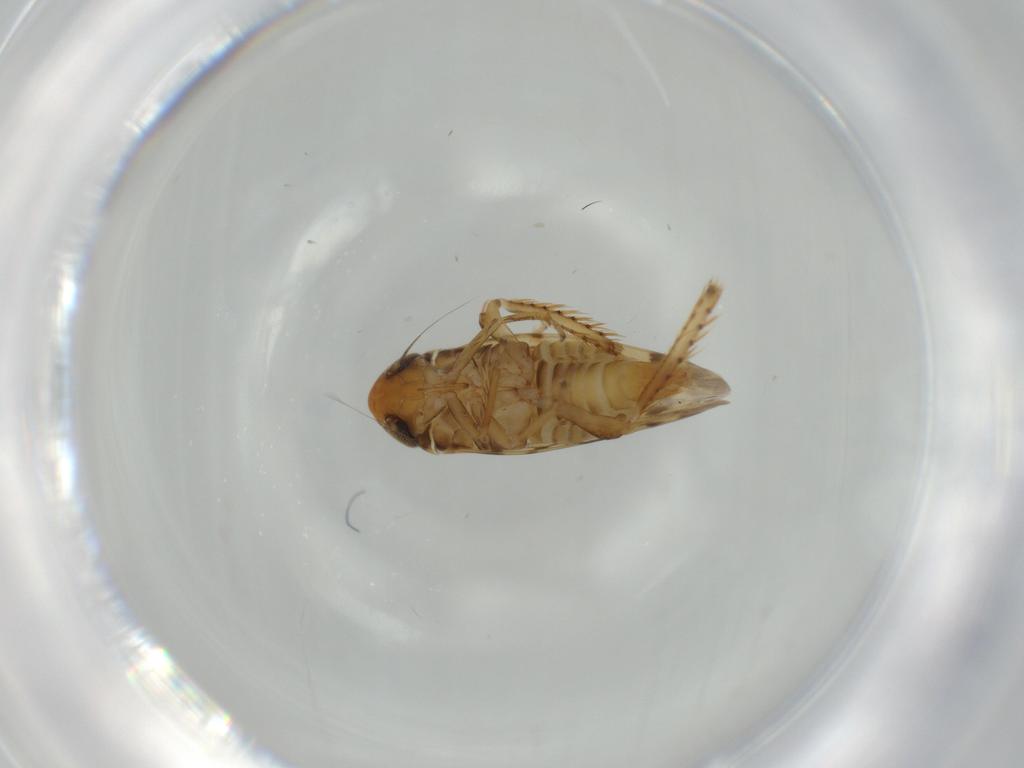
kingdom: Animalia
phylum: Arthropoda
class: Insecta
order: Hemiptera
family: Cicadellidae
